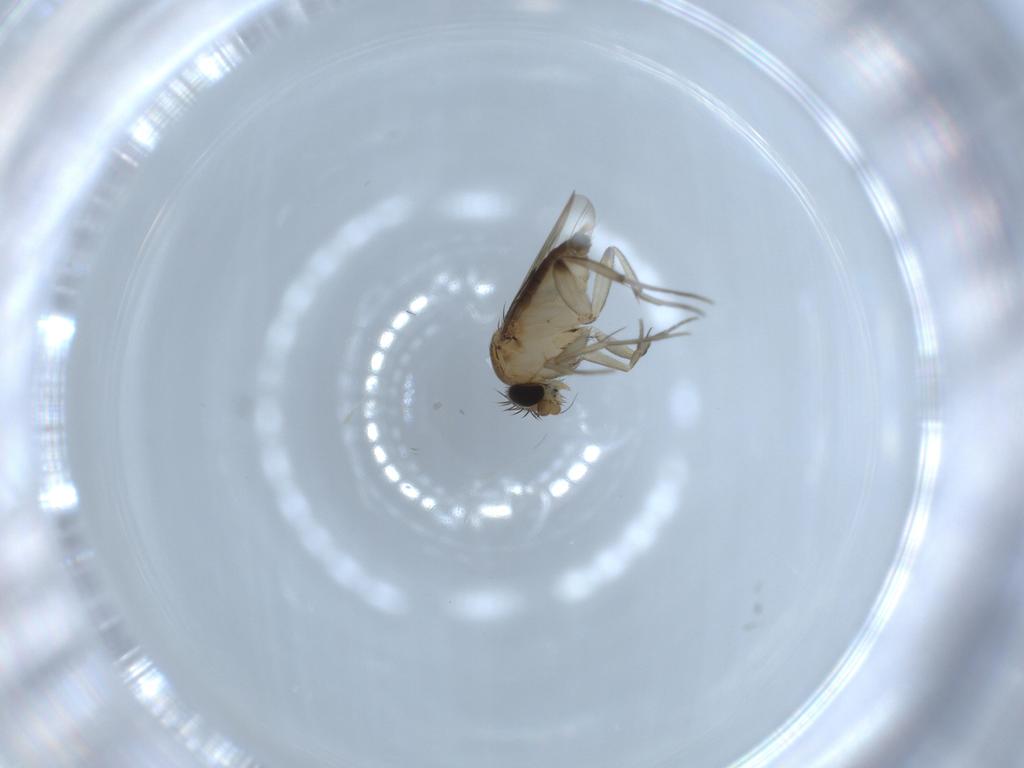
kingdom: Animalia
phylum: Arthropoda
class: Insecta
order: Diptera
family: Phoridae
